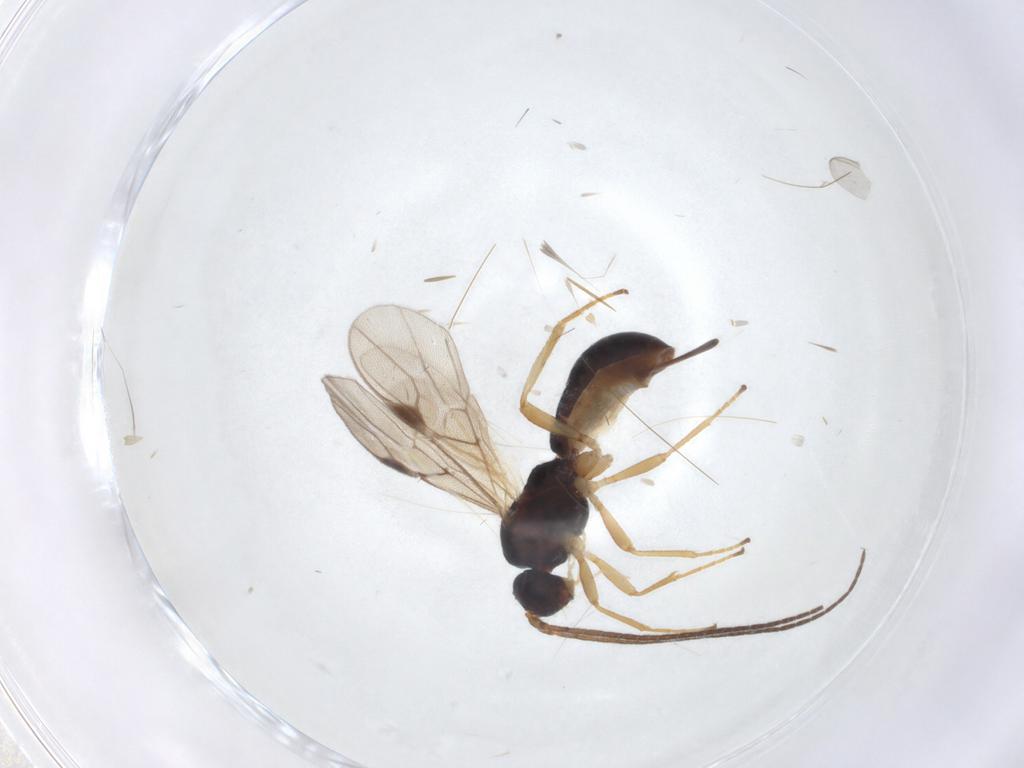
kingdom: Animalia
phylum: Arthropoda
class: Insecta
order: Hymenoptera
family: Braconidae
